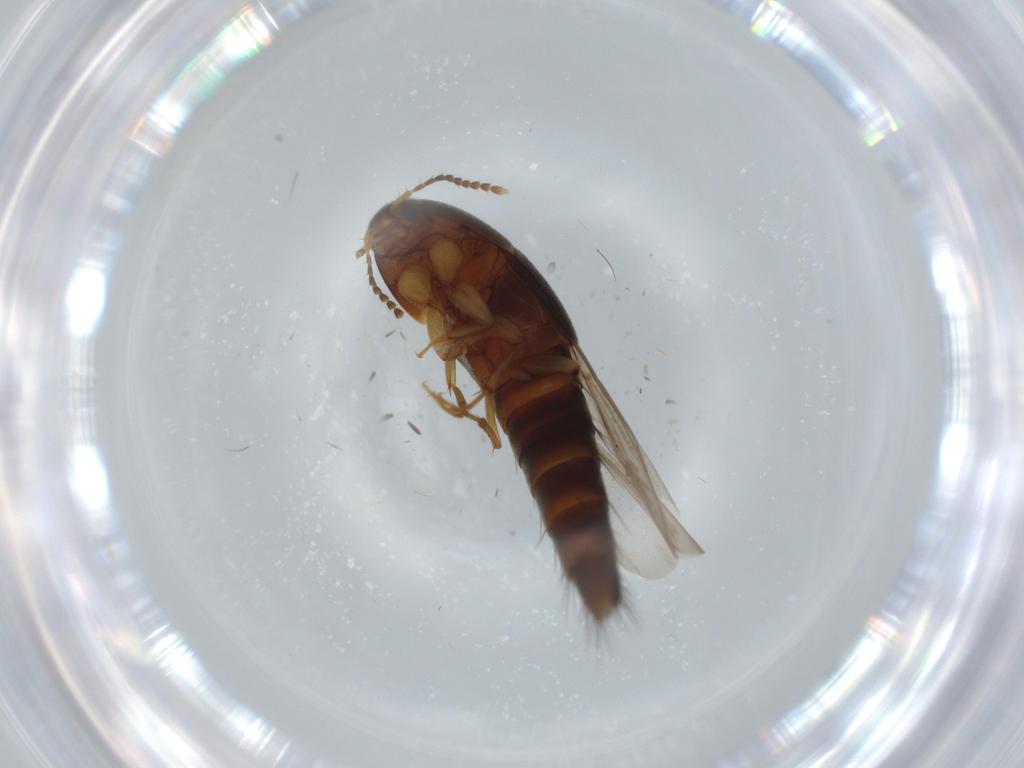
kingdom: Animalia
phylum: Arthropoda
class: Insecta
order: Coleoptera
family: Staphylinidae
